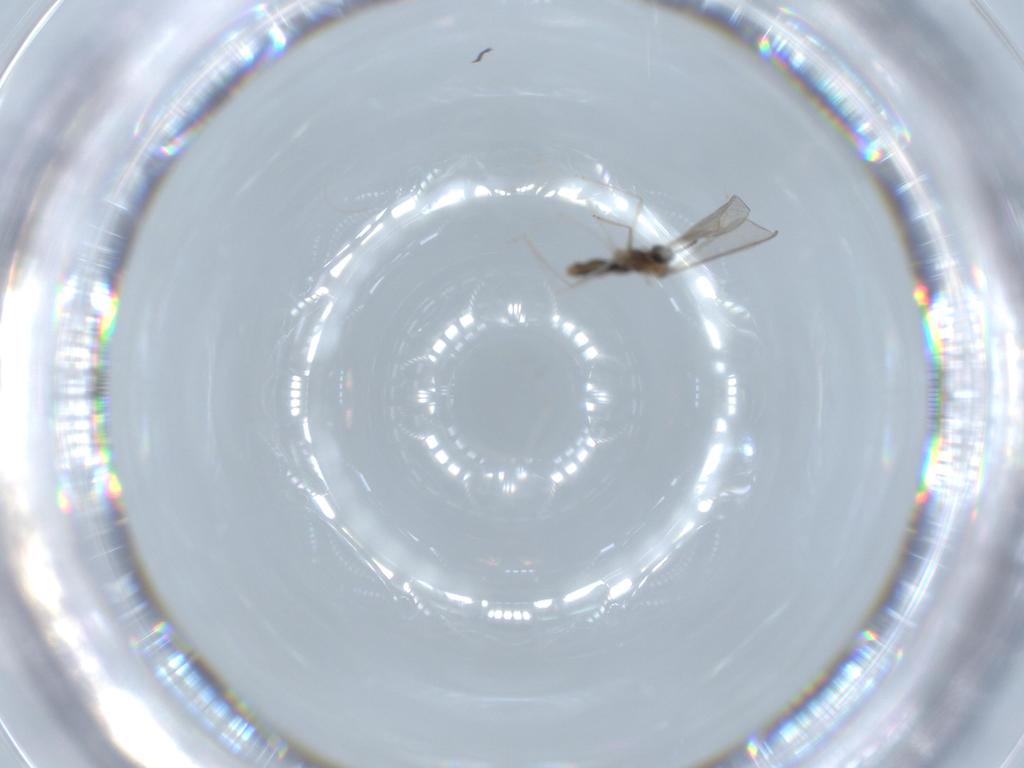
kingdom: Animalia
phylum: Arthropoda
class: Insecta
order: Diptera
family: Cecidomyiidae
